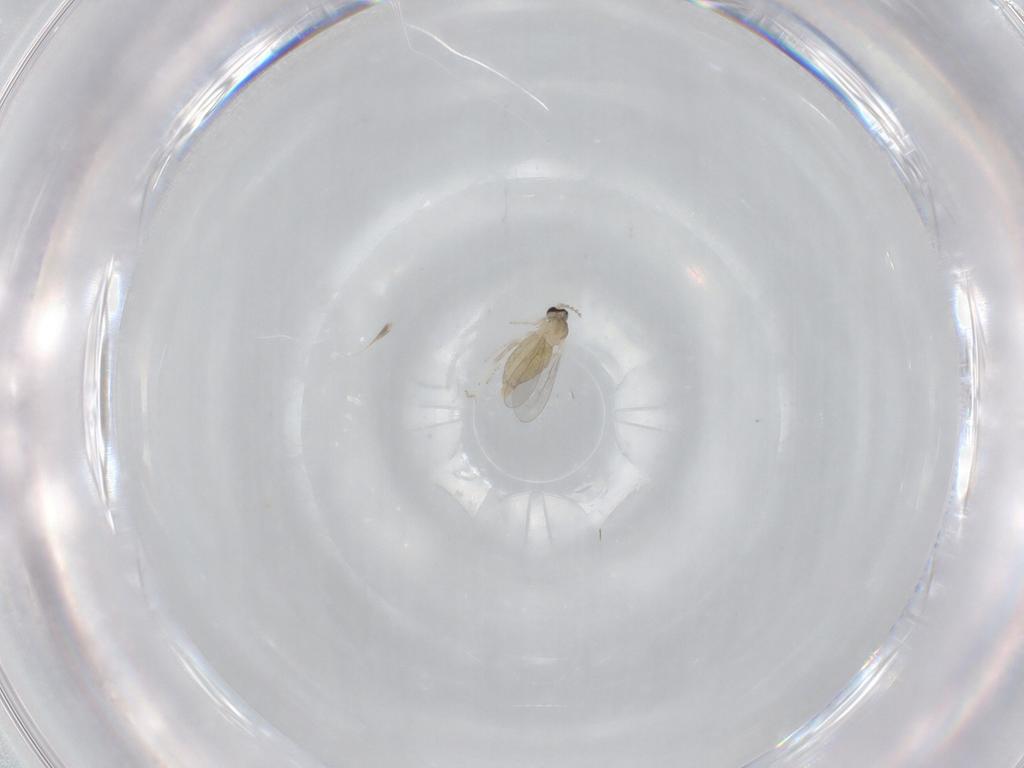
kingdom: Animalia
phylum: Arthropoda
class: Insecta
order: Diptera
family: Cecidomyiidae
